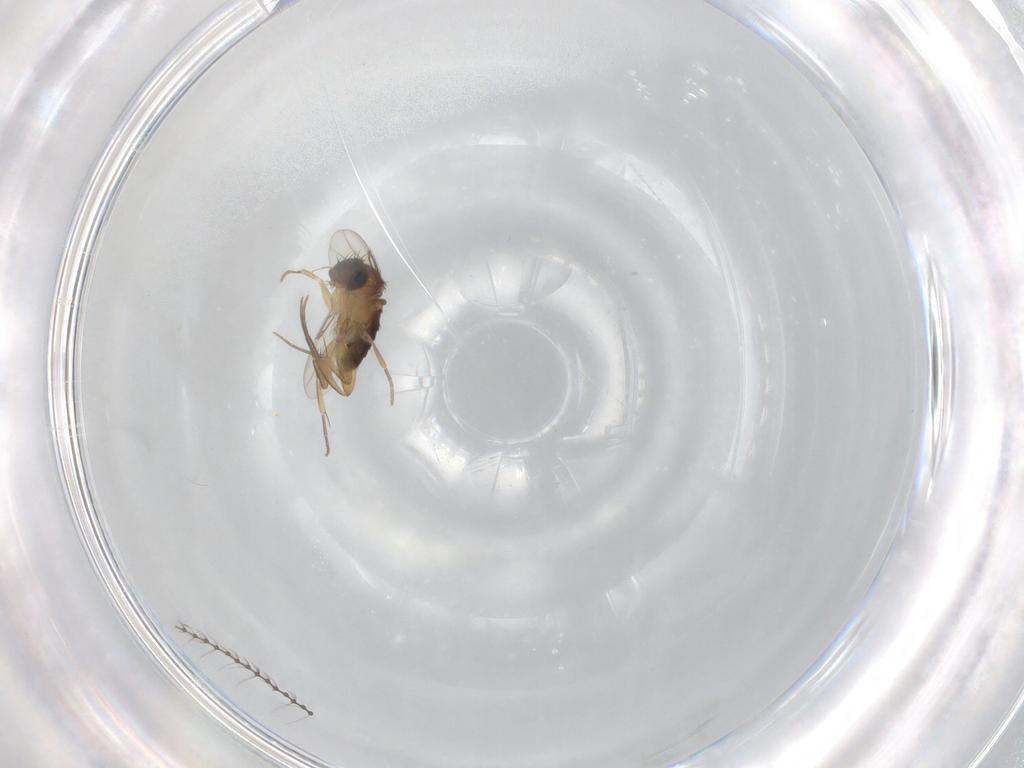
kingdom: Animalia
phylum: Arthropoda
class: Insecta
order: Diptera
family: Phoridae
